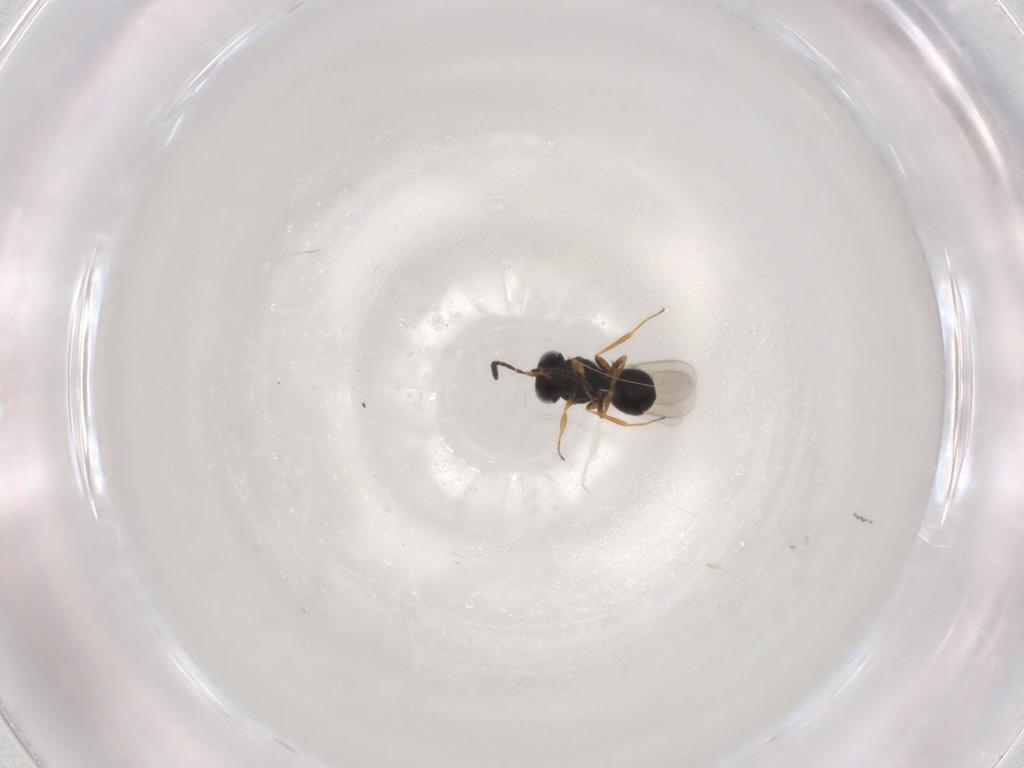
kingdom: Animalia
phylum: Arthropoda
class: Insecta
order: Hymenoptera
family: Scelionidae
